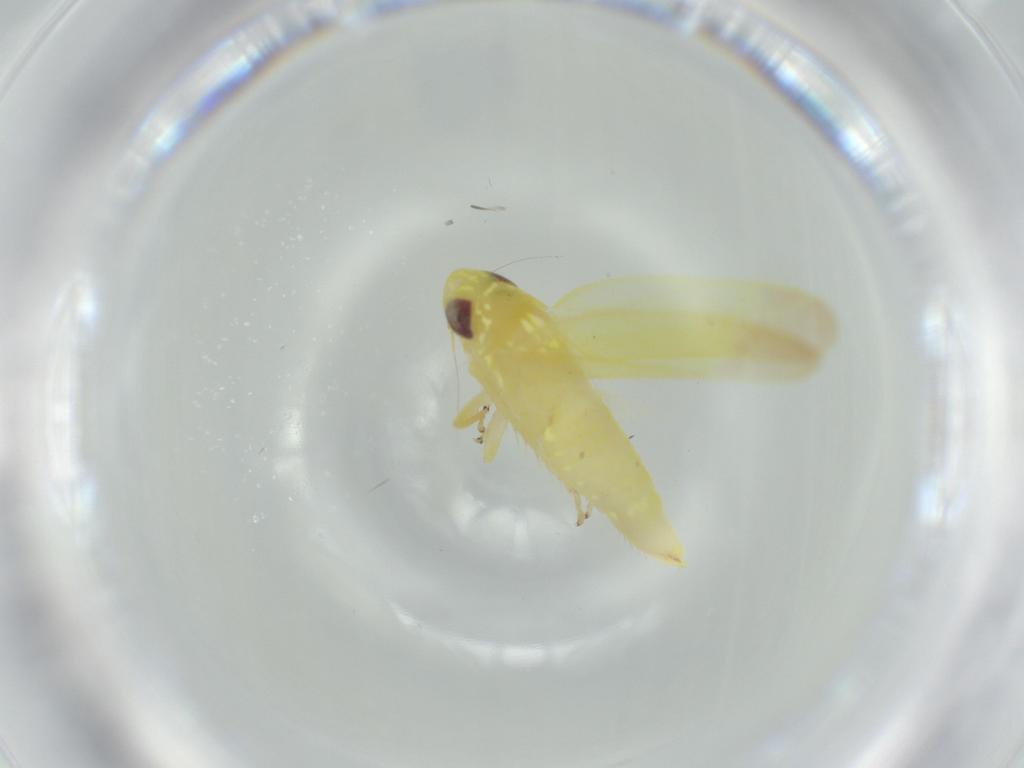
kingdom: Animalia
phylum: Arthropoda
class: Insecta
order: Hemiptera
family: Cicadellidae
